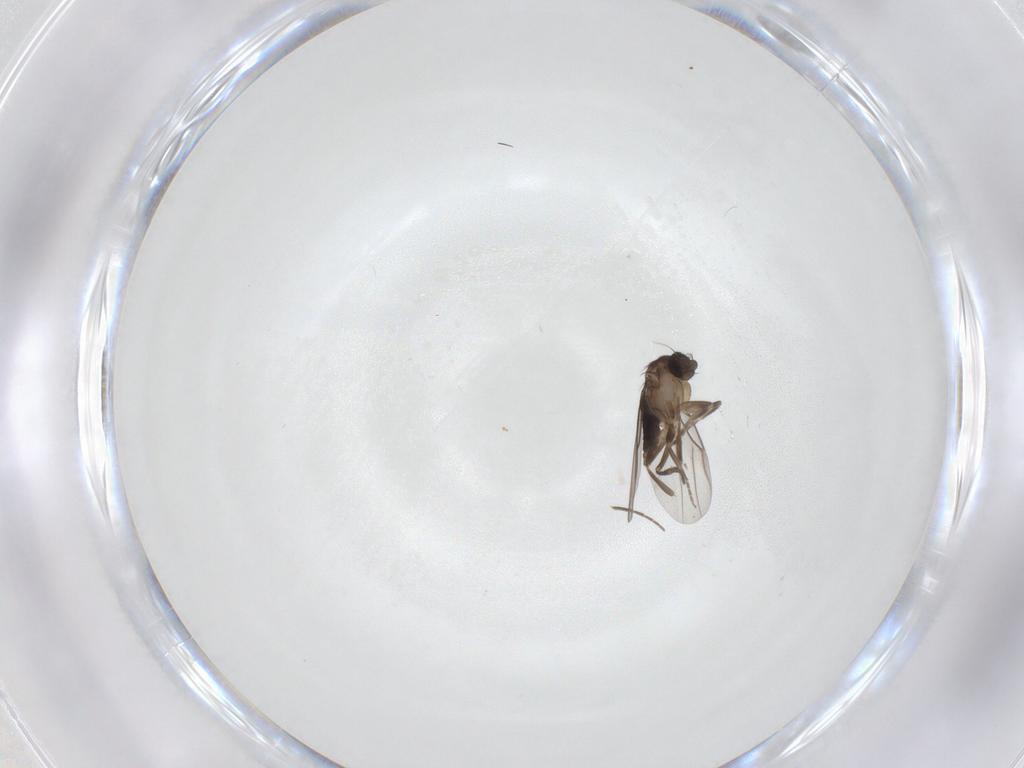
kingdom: Animalia
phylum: Arthropoda
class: Insecta
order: Diptera
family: Phoridae
